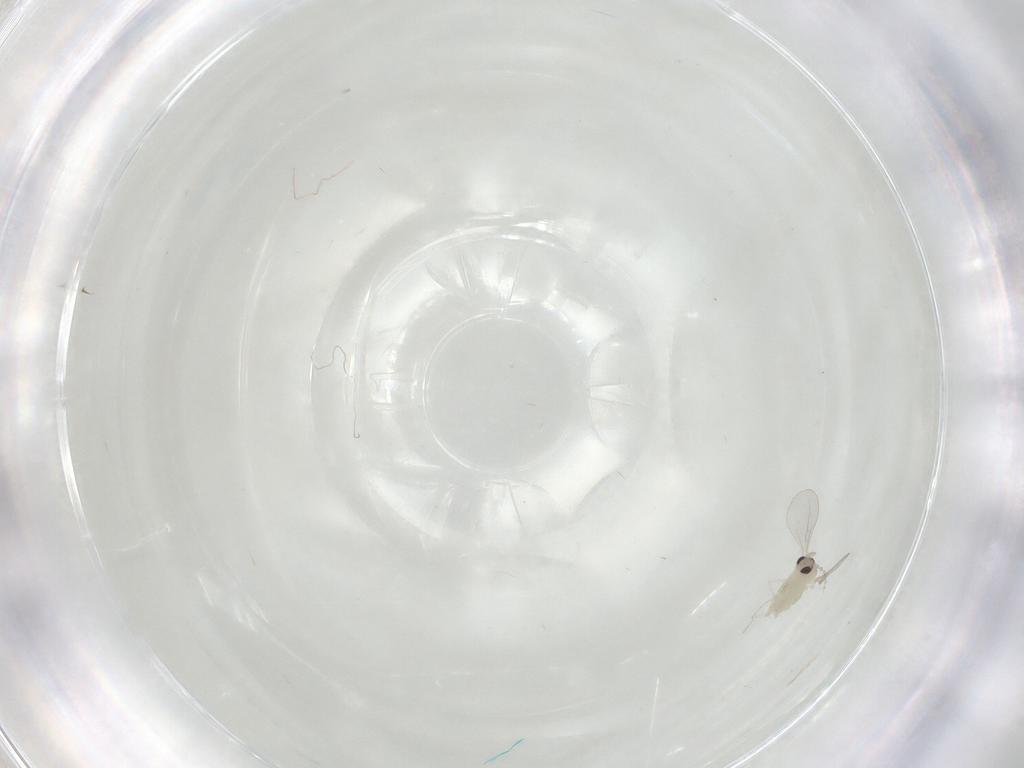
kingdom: Animalia
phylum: Arthropoda
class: Insecta
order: Diptera
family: Cecidomyiidae
